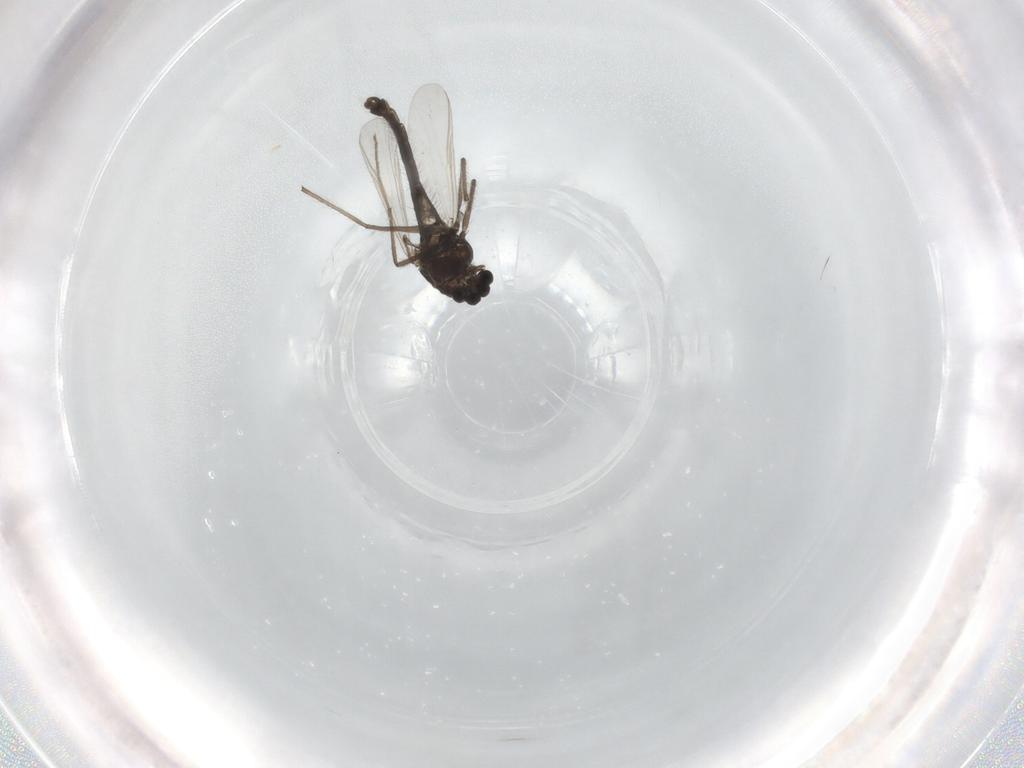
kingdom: Animalia
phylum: Arthropoda
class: Insecta
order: Diptera
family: Chironomidae
